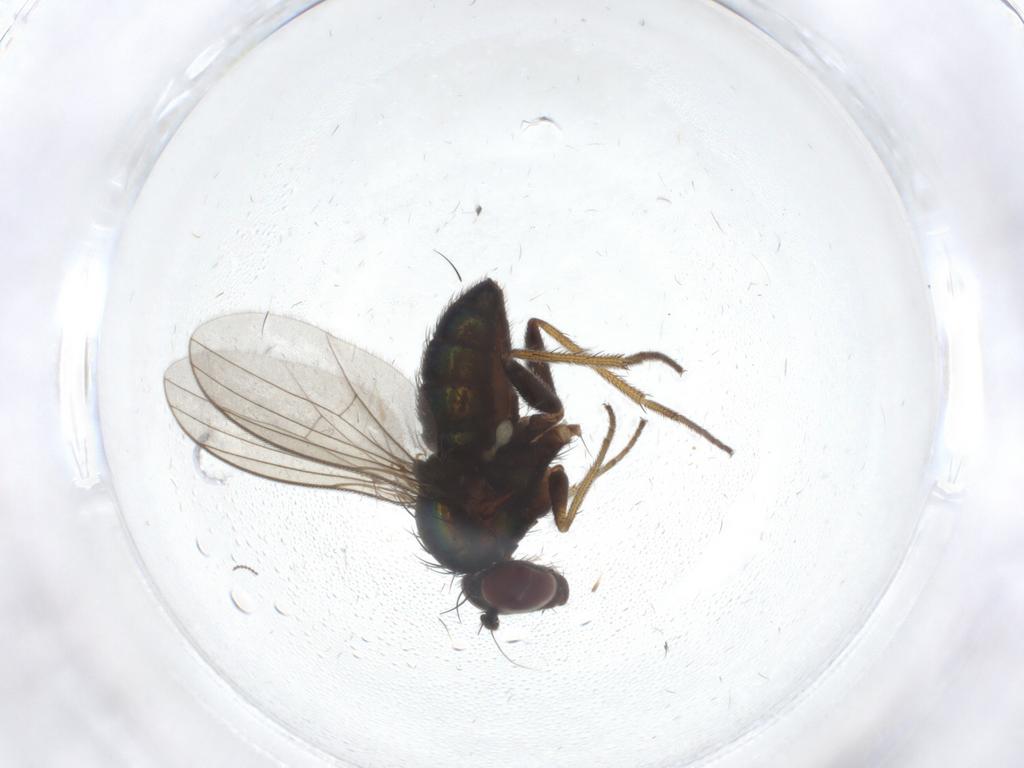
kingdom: Animalia
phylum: Arthropoda
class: Insecta
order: Diptera
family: Dolichopodidae
